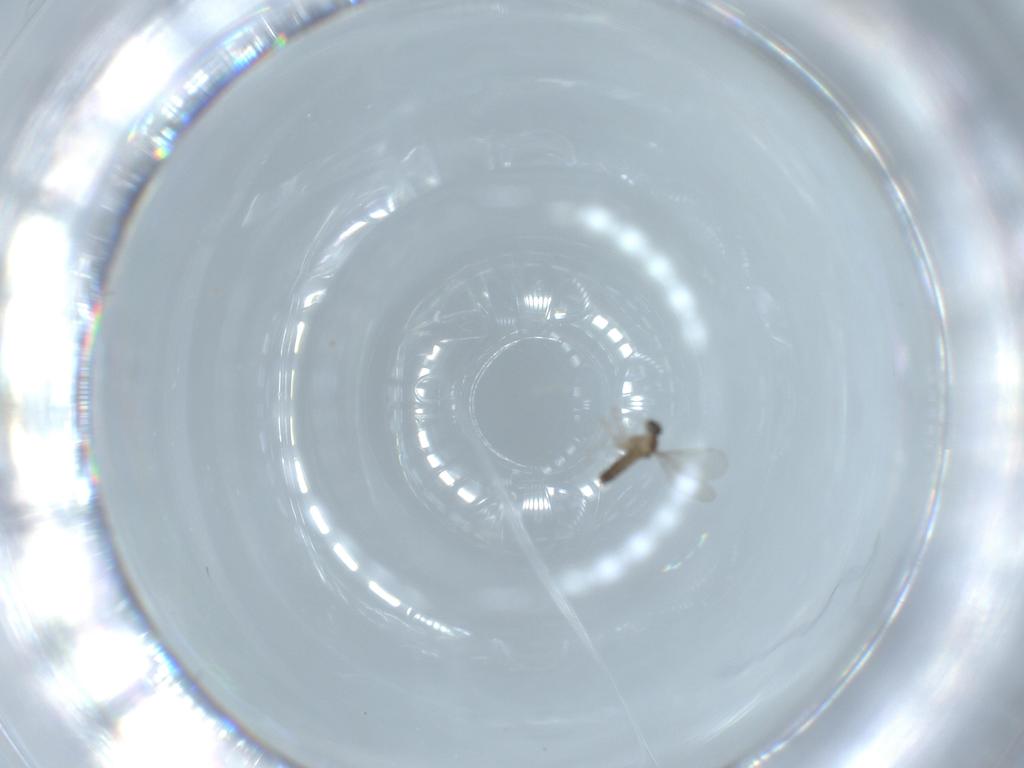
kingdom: Animalia
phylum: Arthropoda
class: Insecta
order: Diptera
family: Cecidomyiidae
